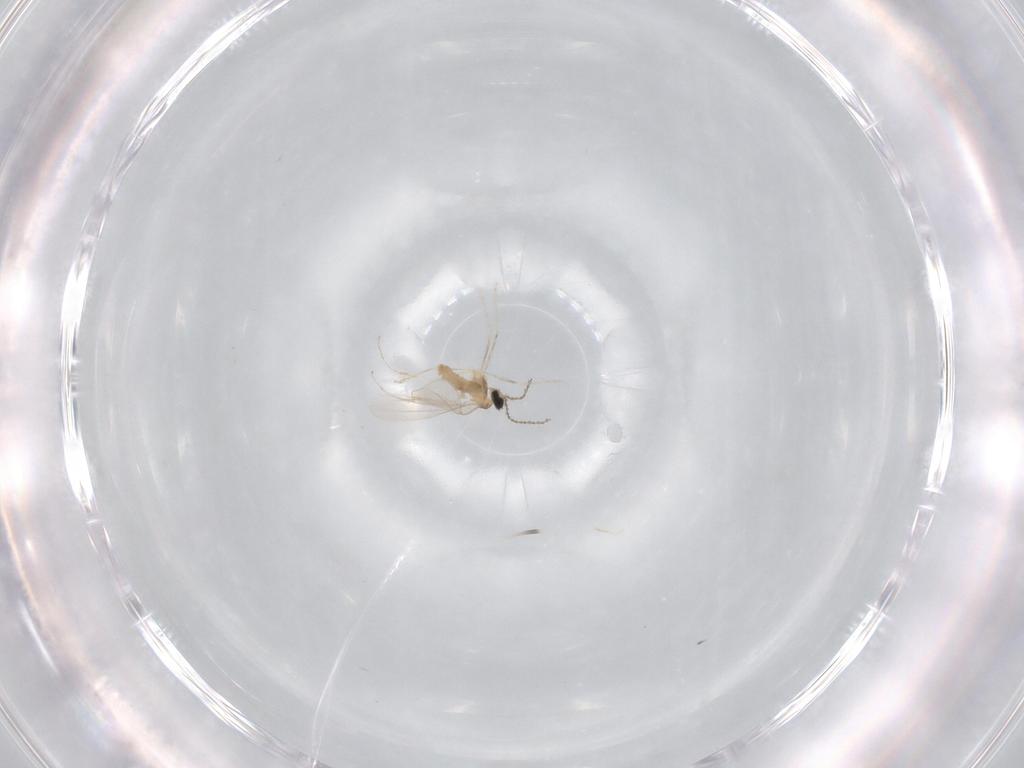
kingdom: Animalia
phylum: Arthropoda
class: Insecta
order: Diptera
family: Cecidomyiidae
